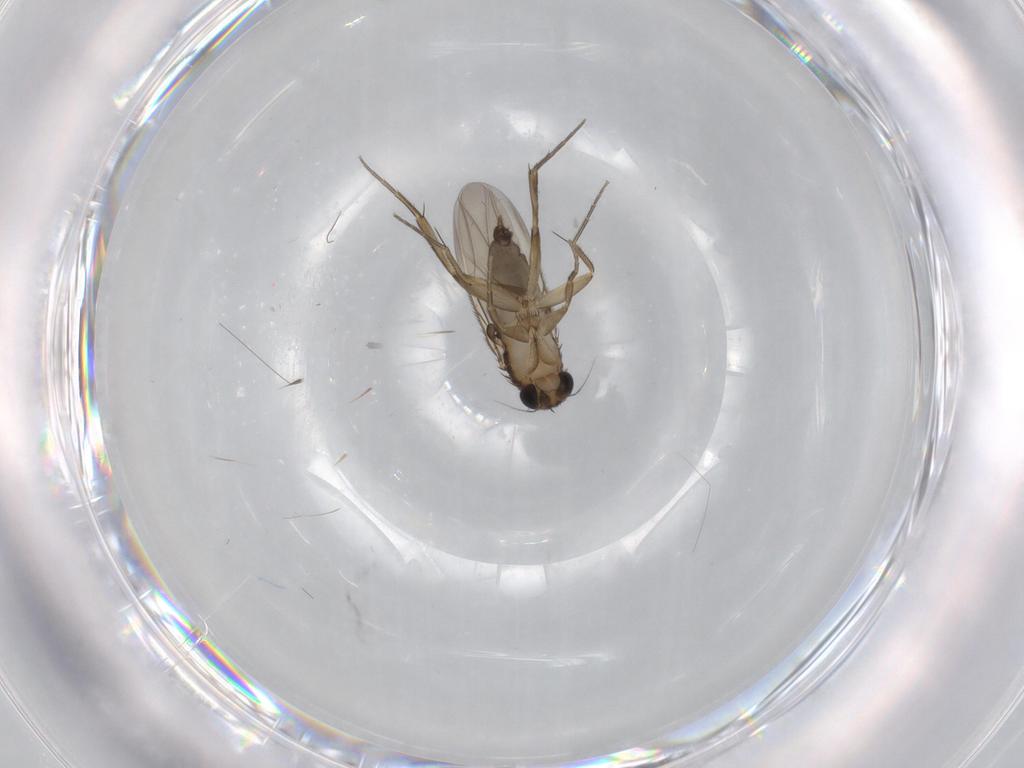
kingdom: Animalia
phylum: Arthropoda
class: Insecta
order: Diptera
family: Phoridae
